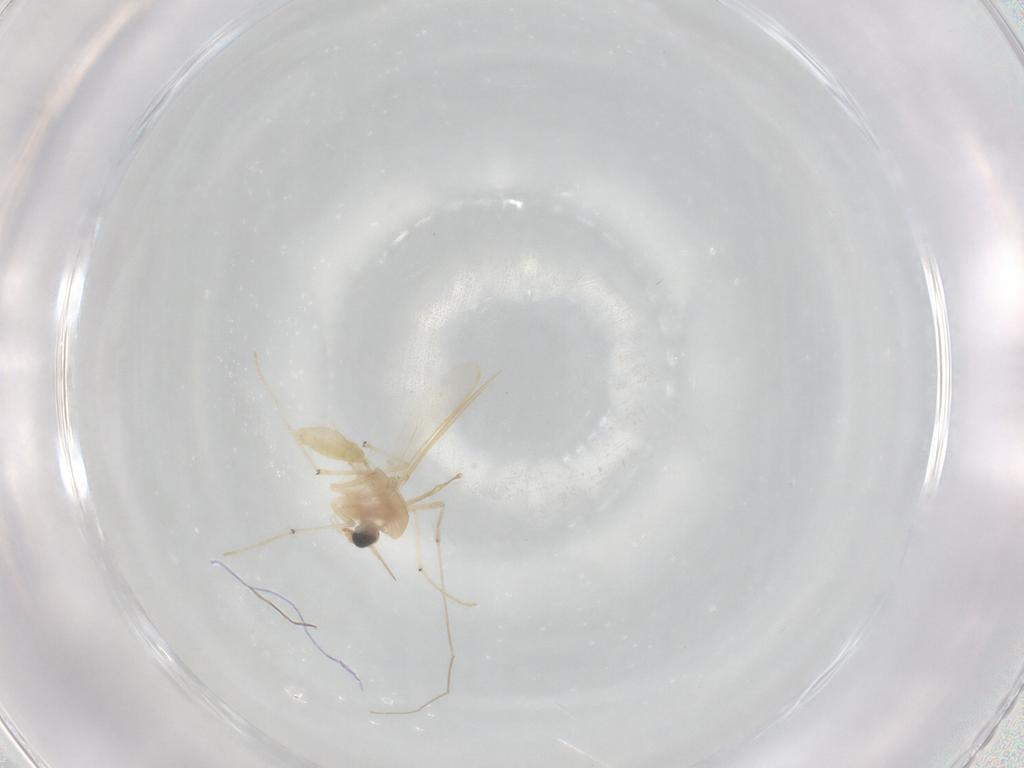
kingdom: Animalia
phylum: Arthropoda
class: Insecta
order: Diptera
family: Chironomidae
